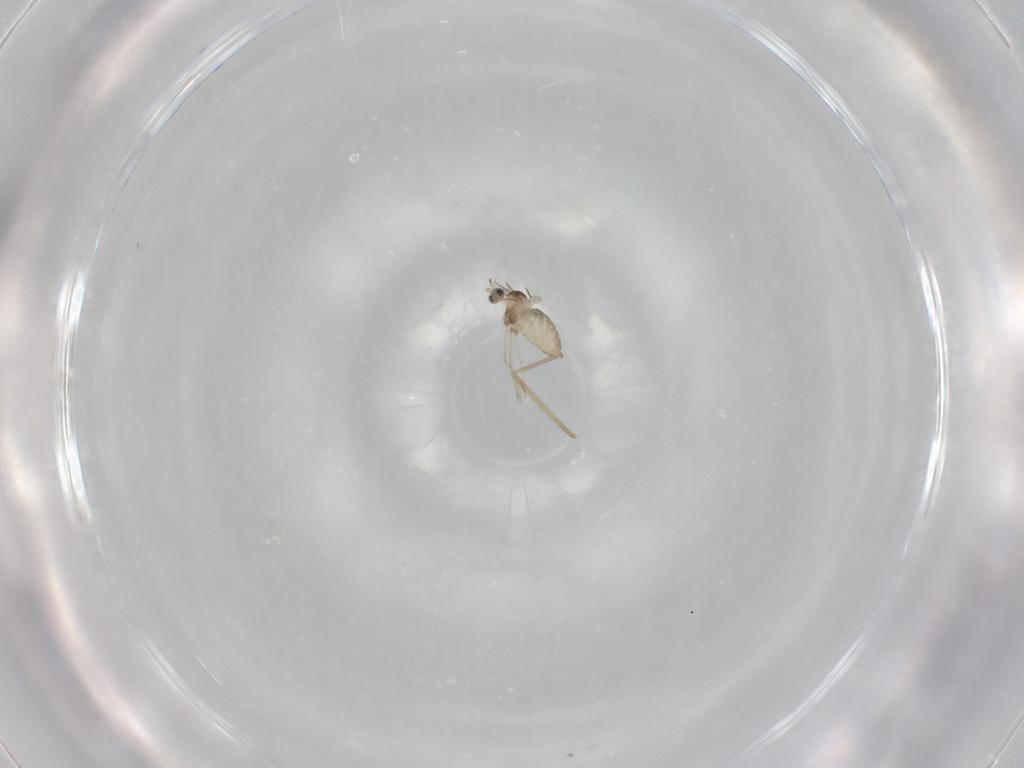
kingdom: Animalia
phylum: Arthropoda
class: Insecta
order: Diptera
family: Cecidomyiidae
